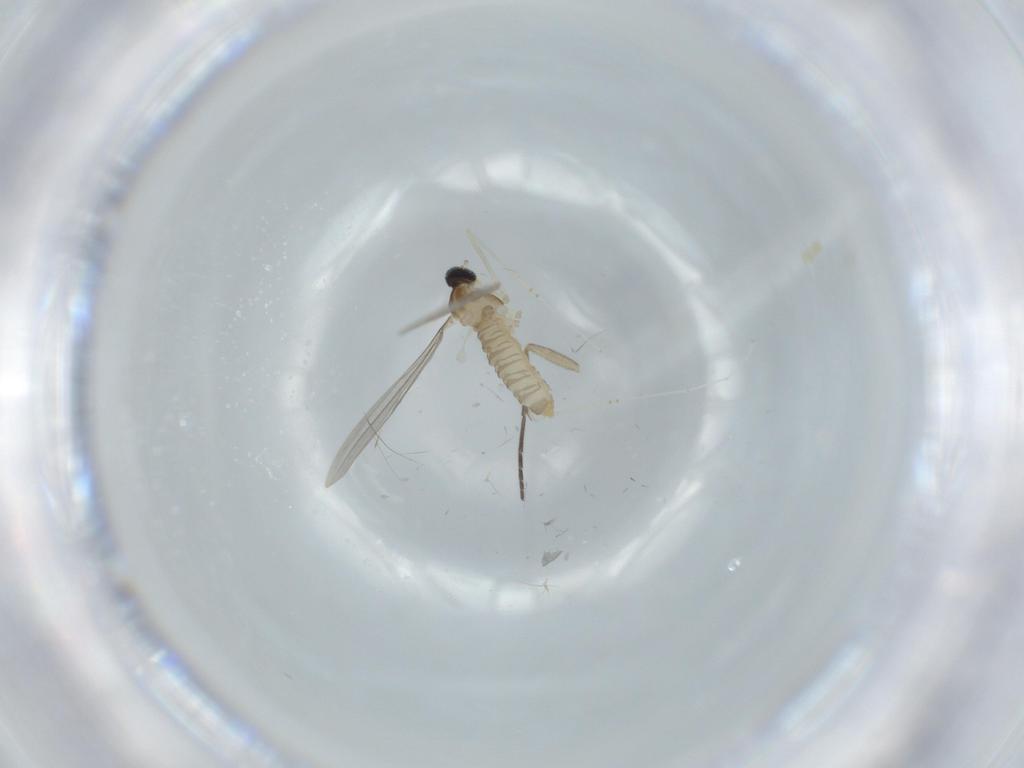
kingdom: Animalia
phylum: Arthropoda
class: Insecta
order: Diptera
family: Cecidomyiidae
